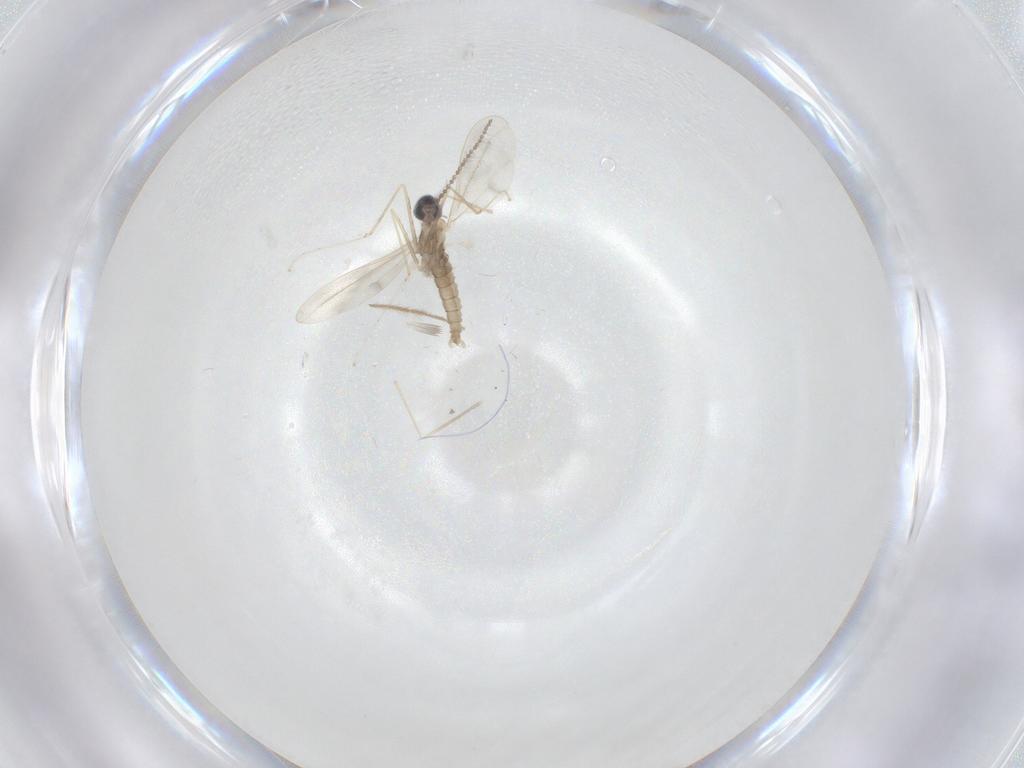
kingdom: Animalia
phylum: Arthropoda
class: Insecta
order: Diptera
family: Chironomidae
